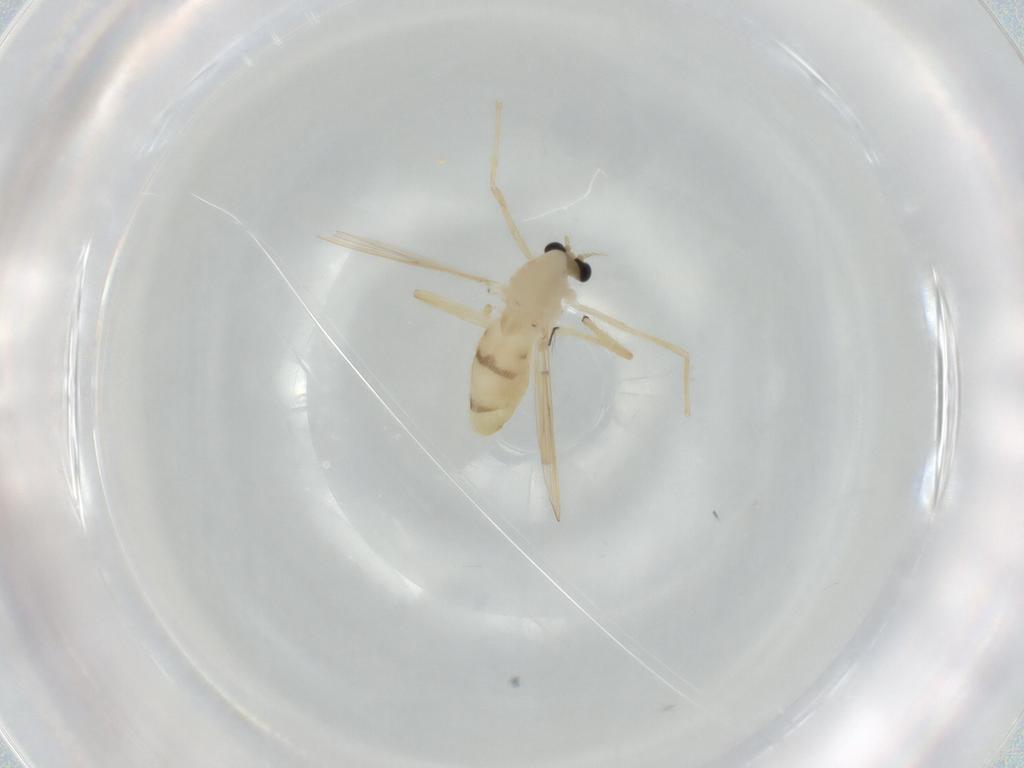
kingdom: Animalia
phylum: Arthropoda
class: Insecta
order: Diptera
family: Chironomidae
